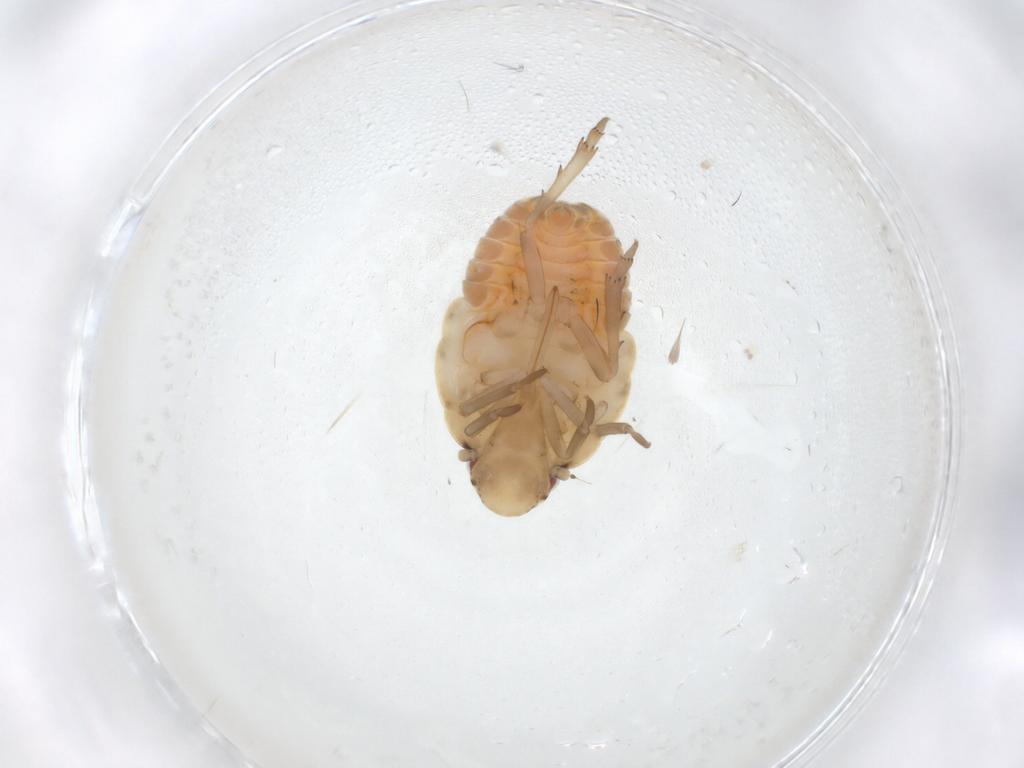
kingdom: Animalia
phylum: Arthropoda
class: Insecta
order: Hemiptera
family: Flatidae
